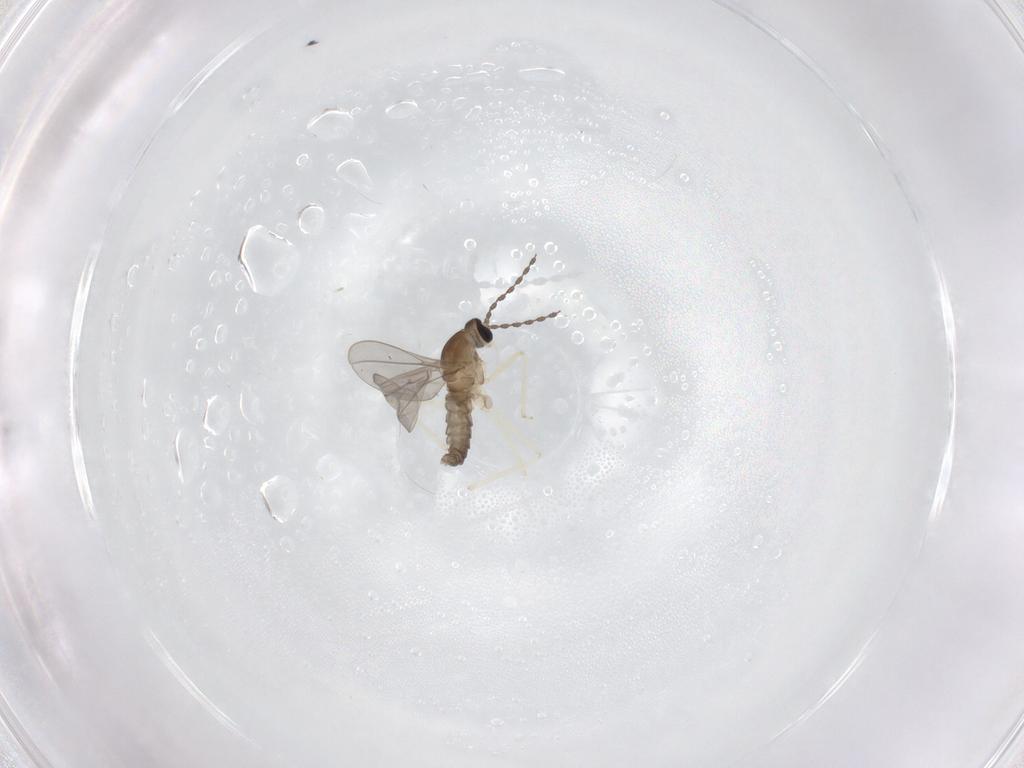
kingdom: Animalia
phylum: Arthropoda
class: Insecta
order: Diptera
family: Cecidomyiidae
